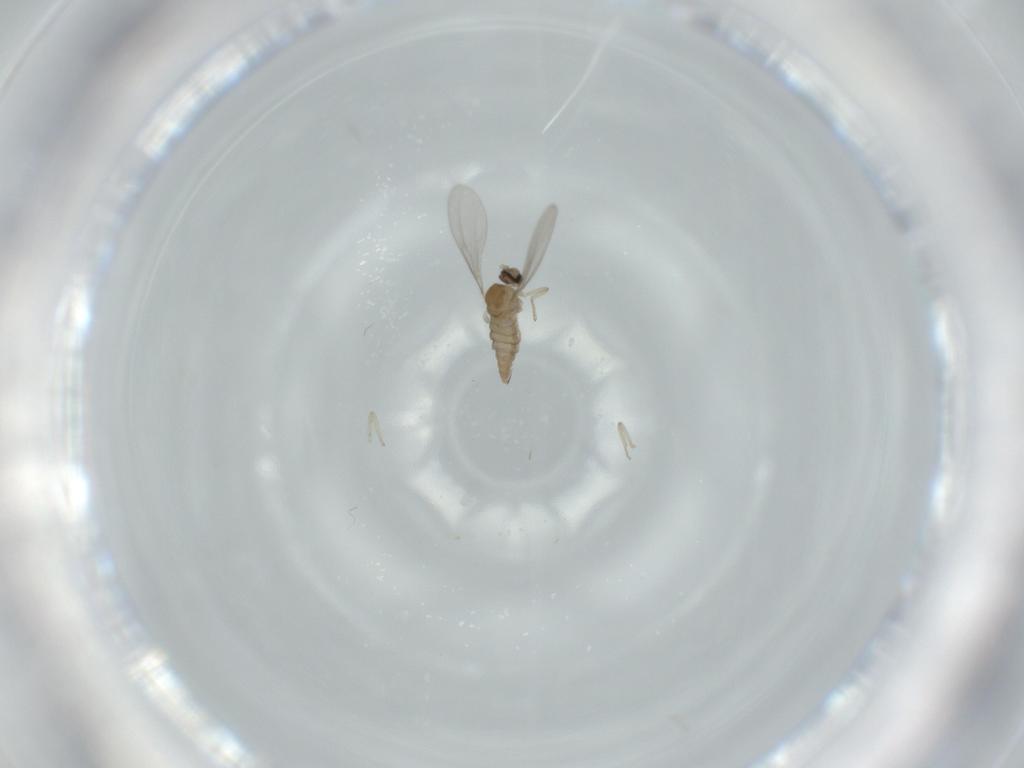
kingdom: Animalia
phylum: Arthropoda
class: Insecta
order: Diptera
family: Cecidomyiidae
